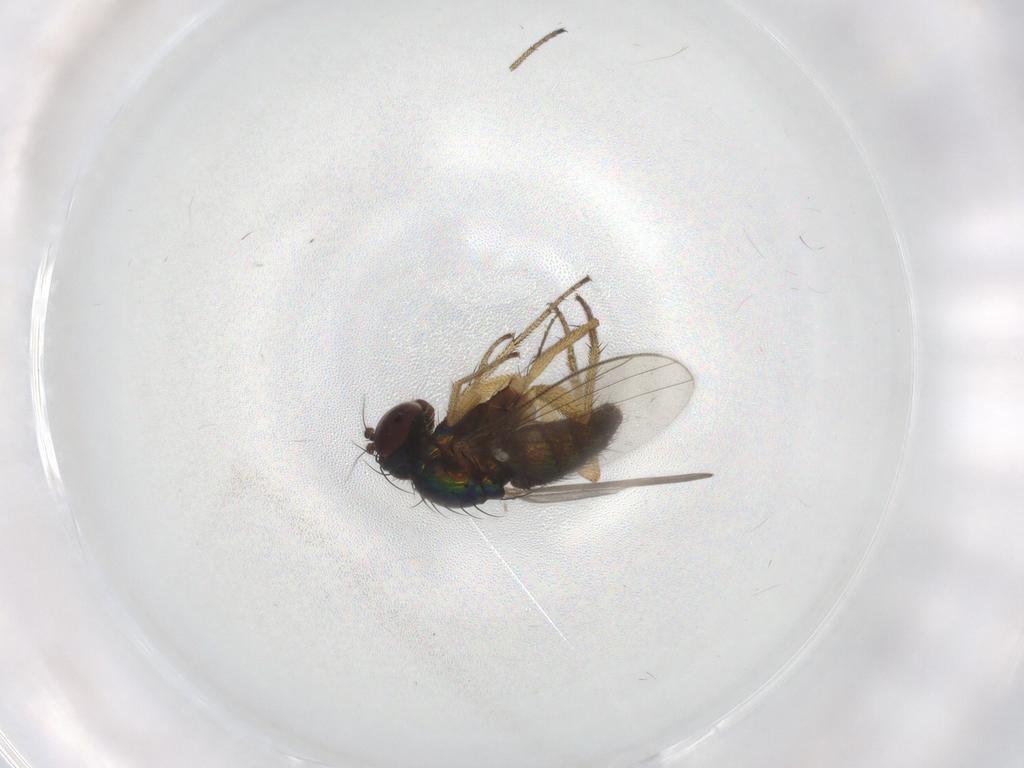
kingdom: Animalia
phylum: Arthropoda
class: Insecta
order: Diptera
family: Dolichopodidae
